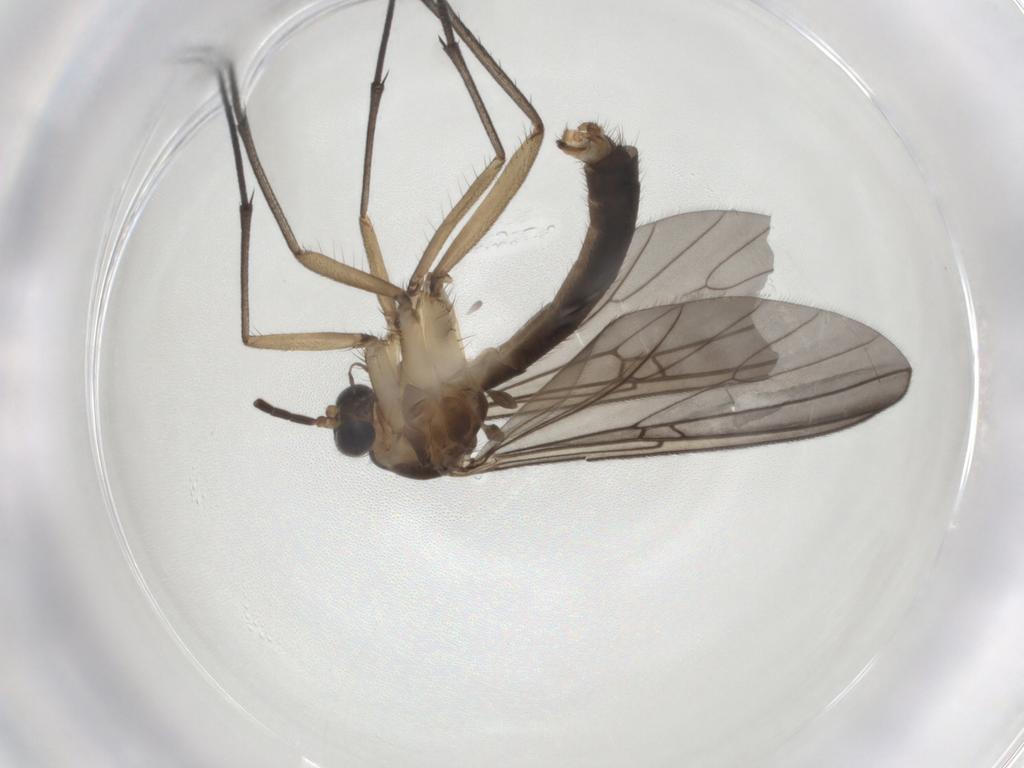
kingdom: Animalia
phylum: Arthropoda
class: Insecta
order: Diptera
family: Mycetophilidae
